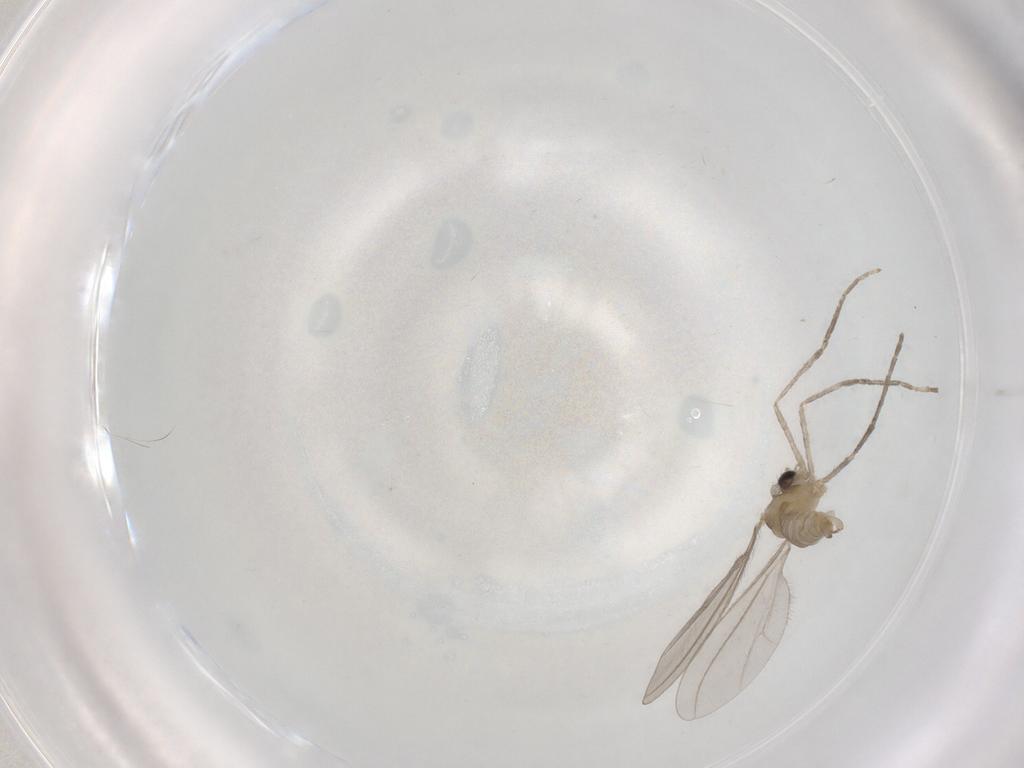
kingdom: Animalia
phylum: Arthropoda
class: Insecta
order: Diptera
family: Cecidomyiidae
